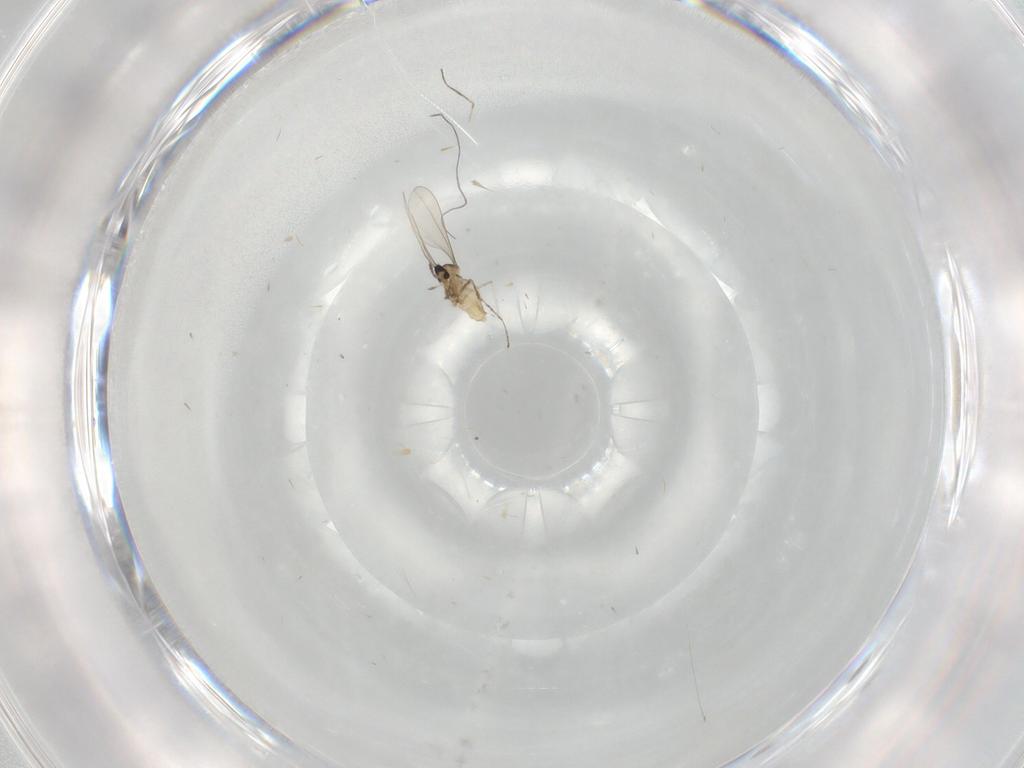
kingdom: Animalia
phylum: Arthropoda
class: Insecta
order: Diptera
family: Cecidomyiidae
